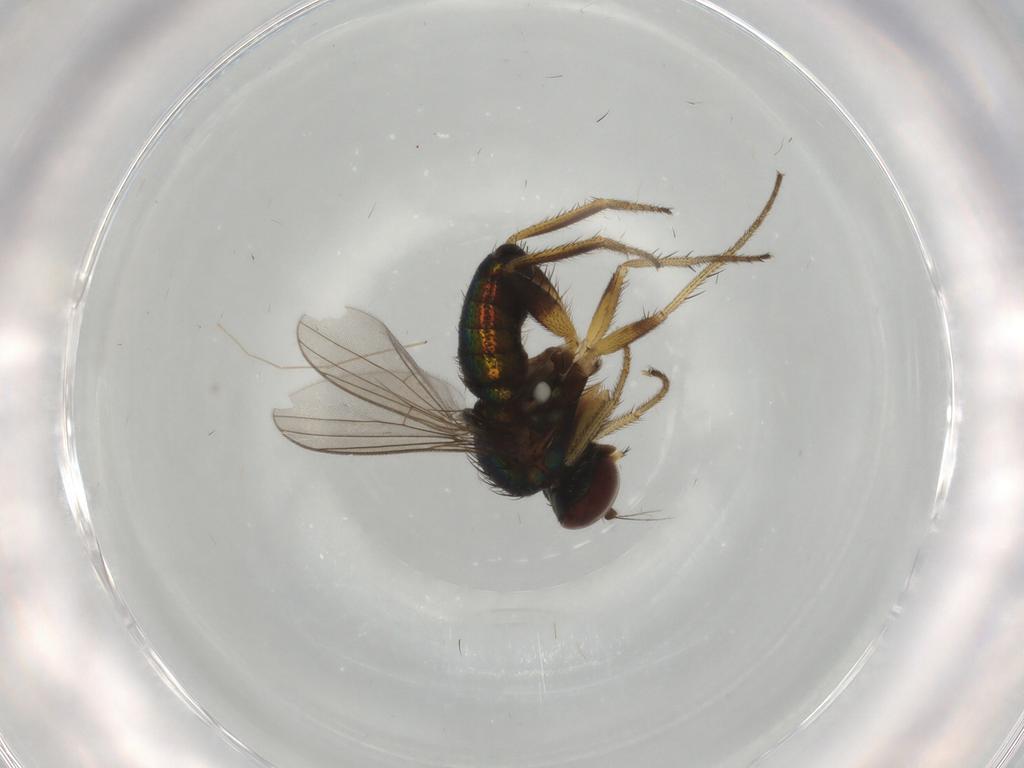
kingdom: Animalia
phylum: Arthropoda
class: Insecta
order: Diptera
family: Dolichopodidae
